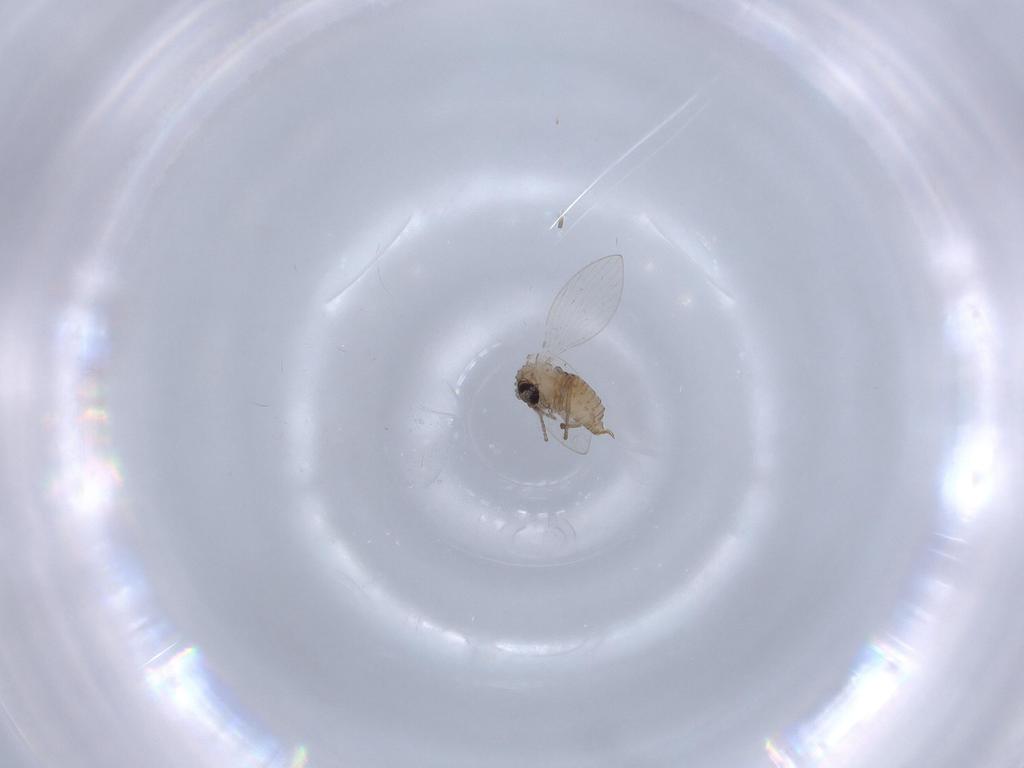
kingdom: Animalia
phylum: Arthropoda
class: Insecta
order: Diptera
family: Psychodidae
